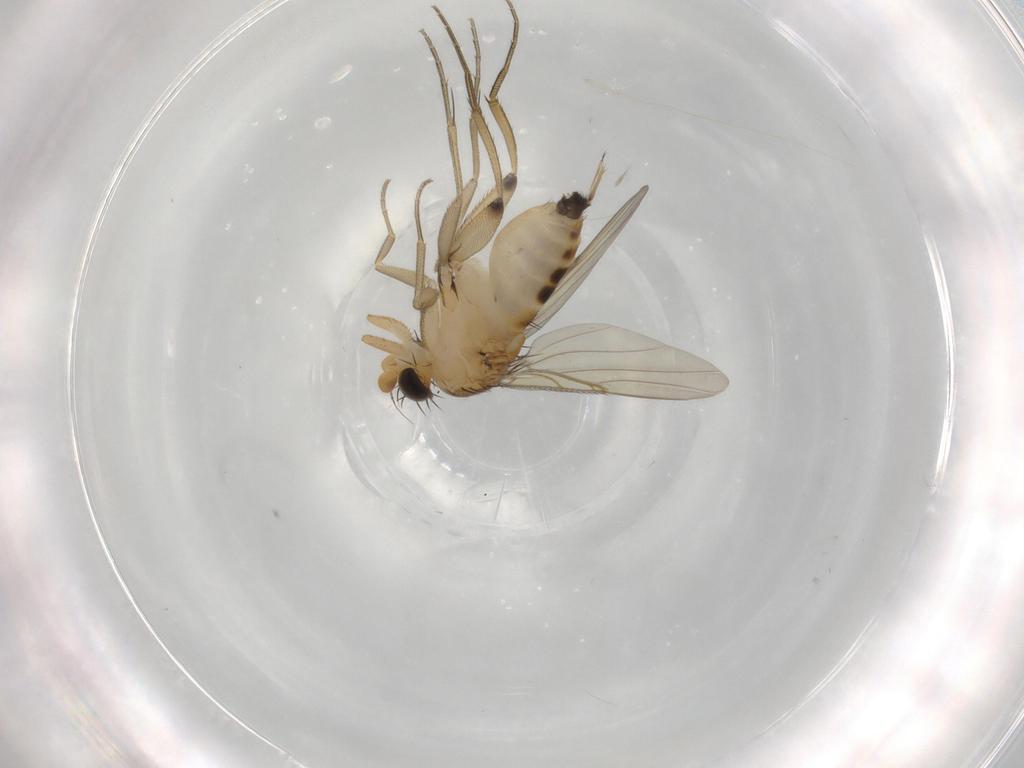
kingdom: Animalia
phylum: Arthropoda
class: Insecta
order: Diptera
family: Phoridae
